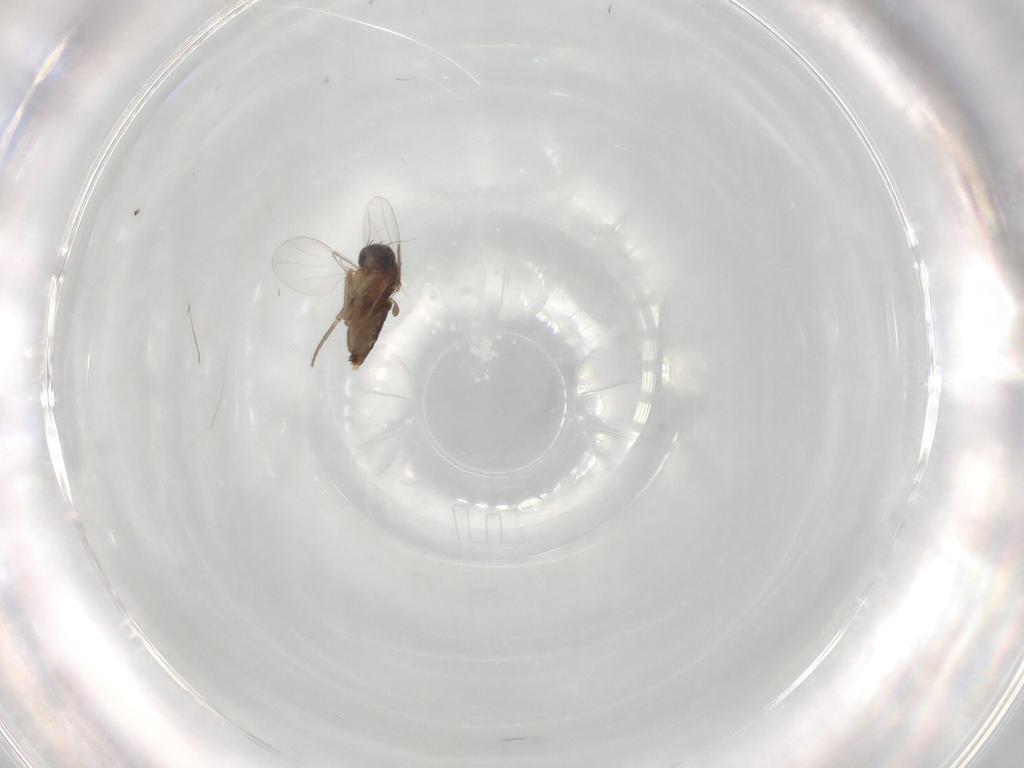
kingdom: Animalia
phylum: Arthropoda
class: Insecta
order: Diptera
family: Phoridae
